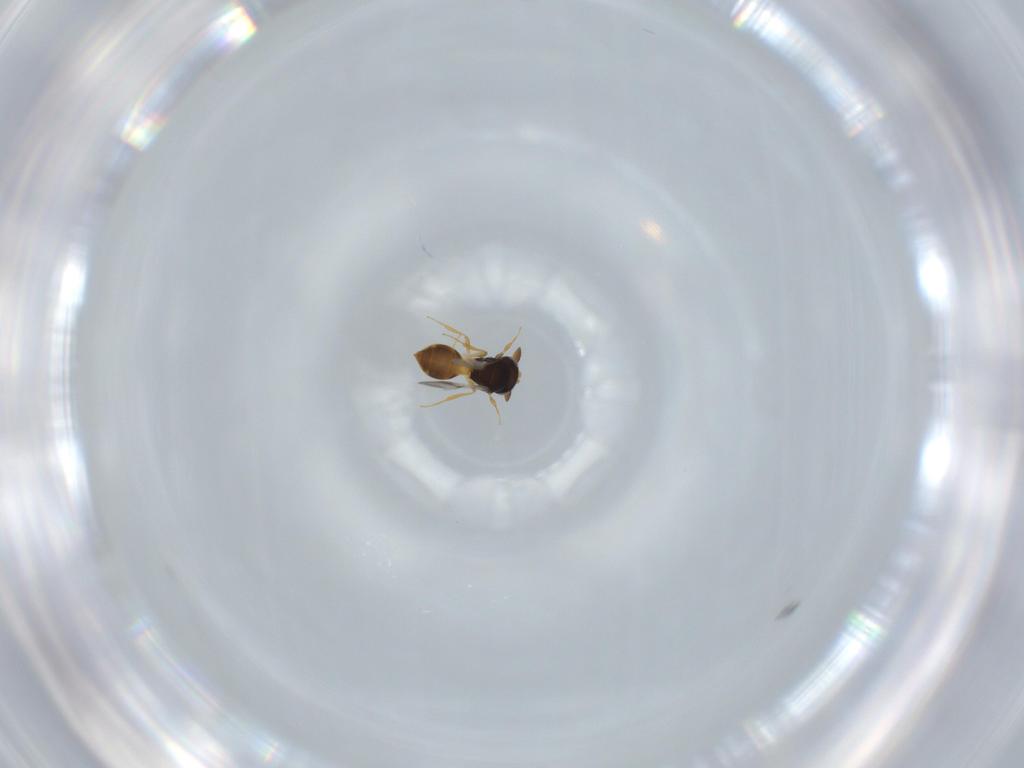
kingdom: Animalia
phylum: Arthropoda
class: Insecta
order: Hymenoptera
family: Scelionidae
